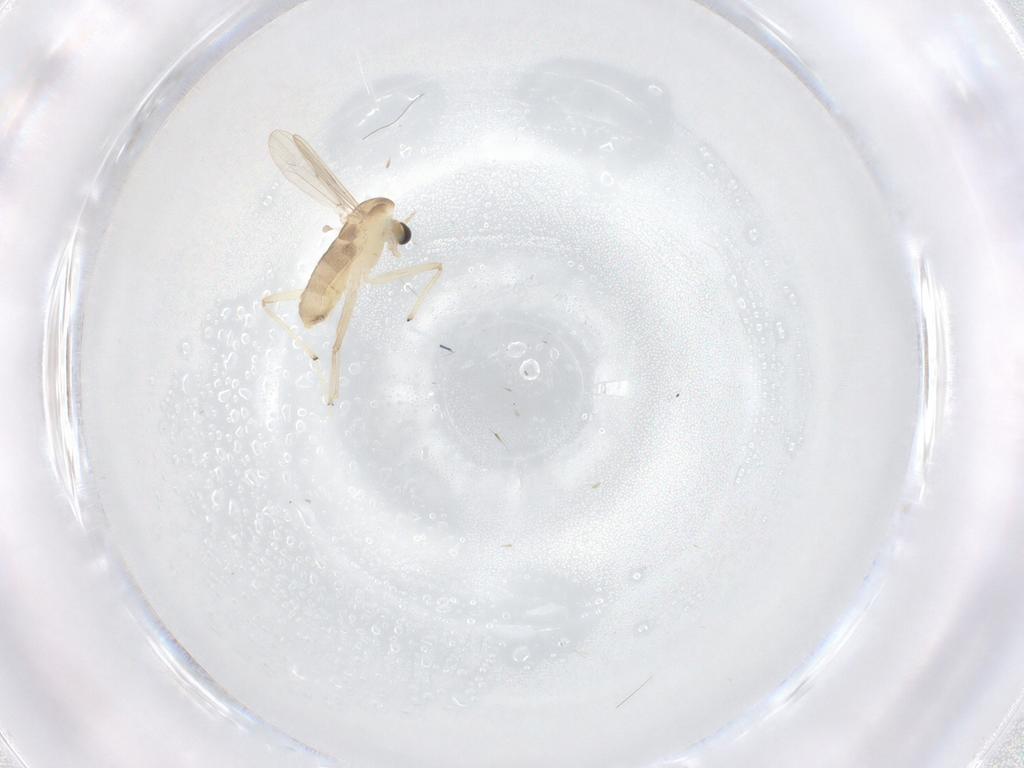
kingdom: Animalia
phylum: Arthropoda
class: Insecta
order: Diptera
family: Chironomidae
